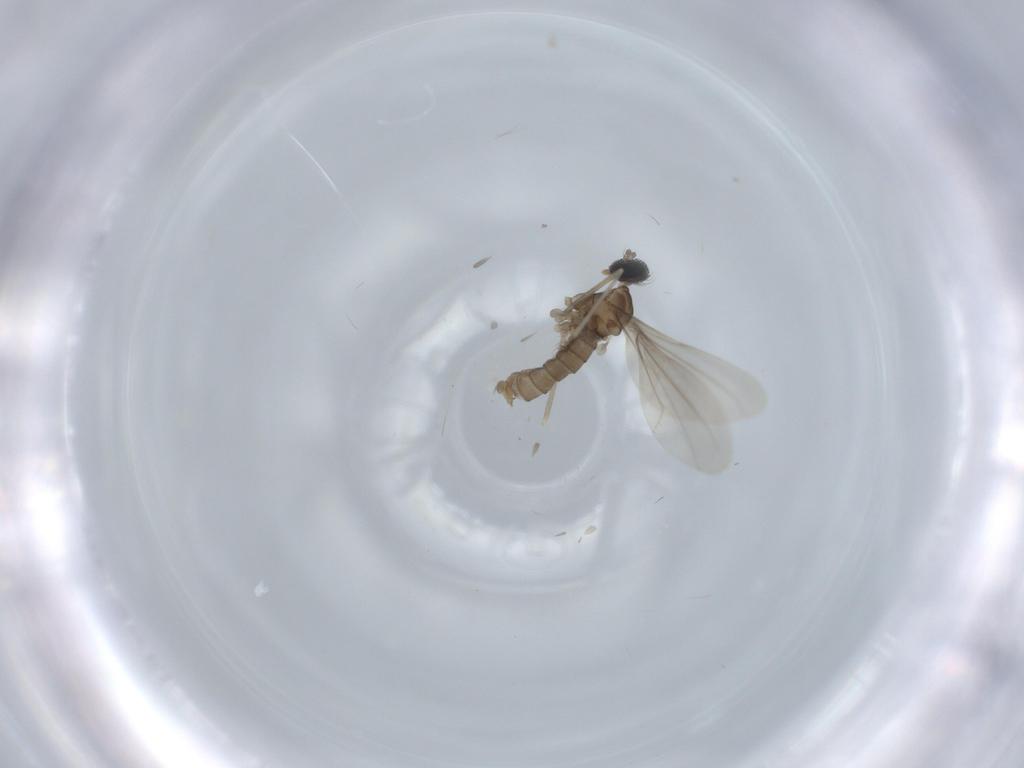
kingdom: Animalia
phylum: Arthropoda
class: Insecta
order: Diptera
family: Cecidomyiidae
